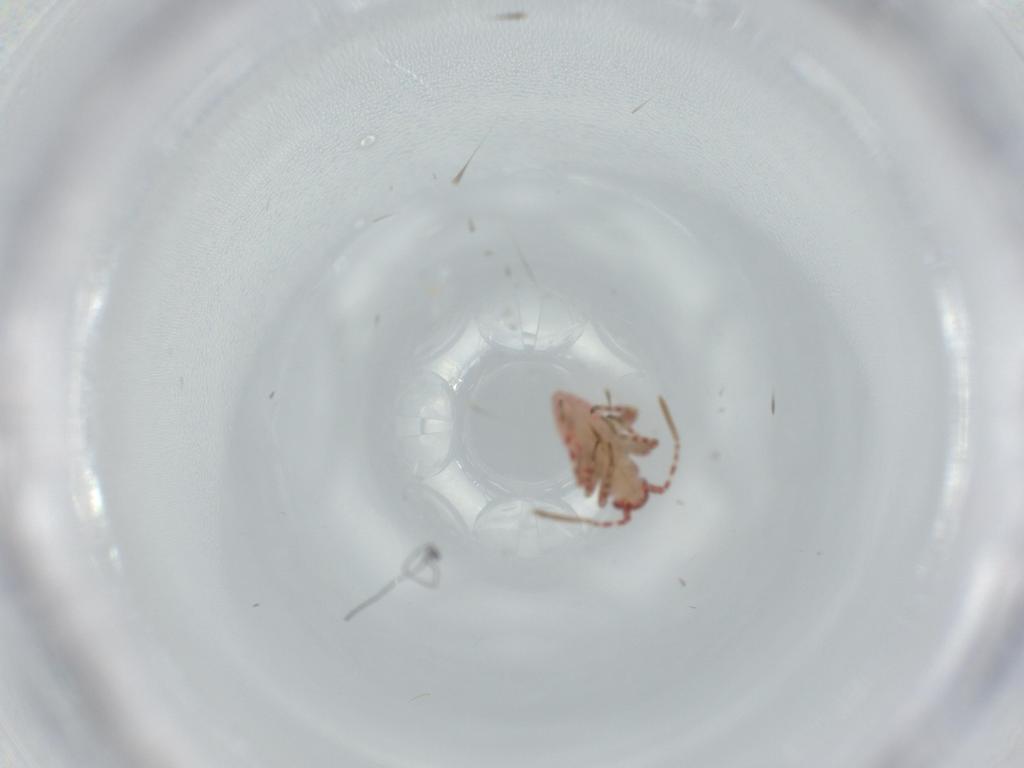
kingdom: Animalia
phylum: Arthropoda
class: Insecta
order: Hemiptera
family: Miridae
